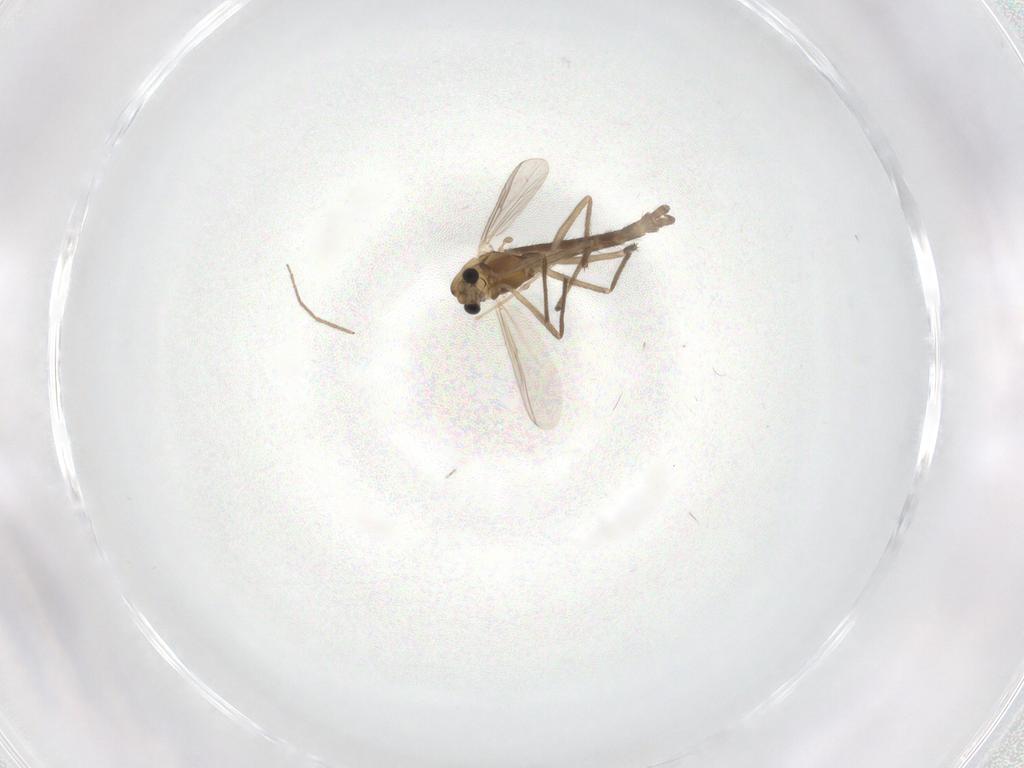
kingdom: Animalia
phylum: Arthropoda
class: Insecta
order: Diptera
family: Chironomidae
